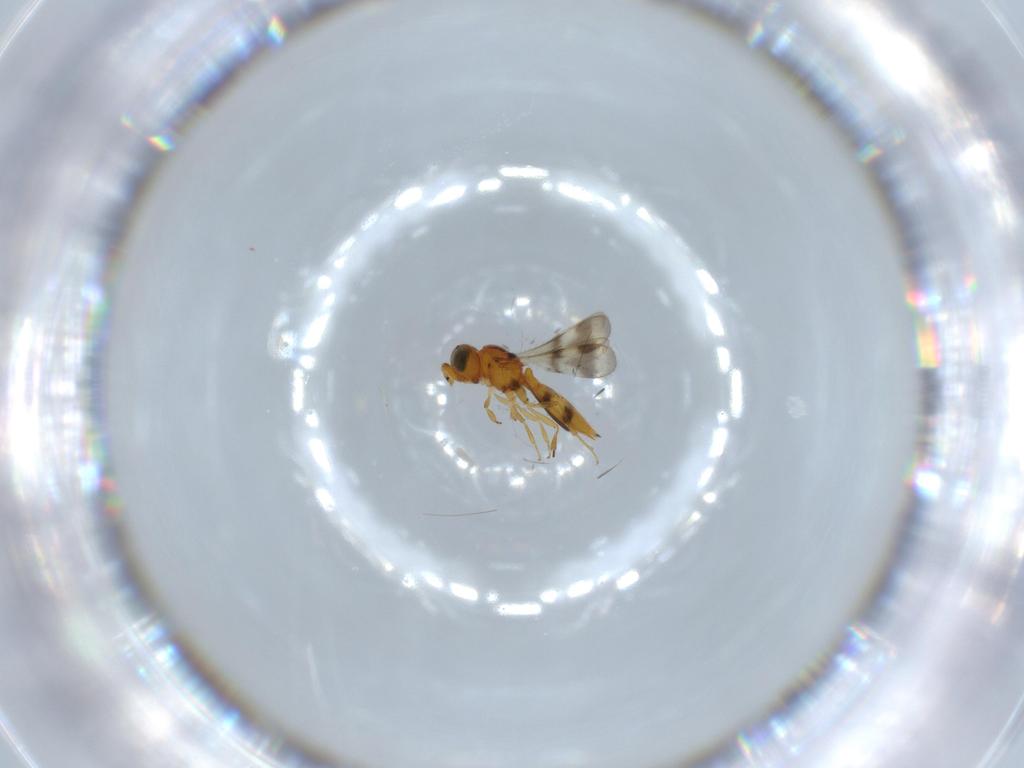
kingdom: Animalia
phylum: Arthropoda
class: Insecta
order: Hymenoptera
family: Scelionidae
